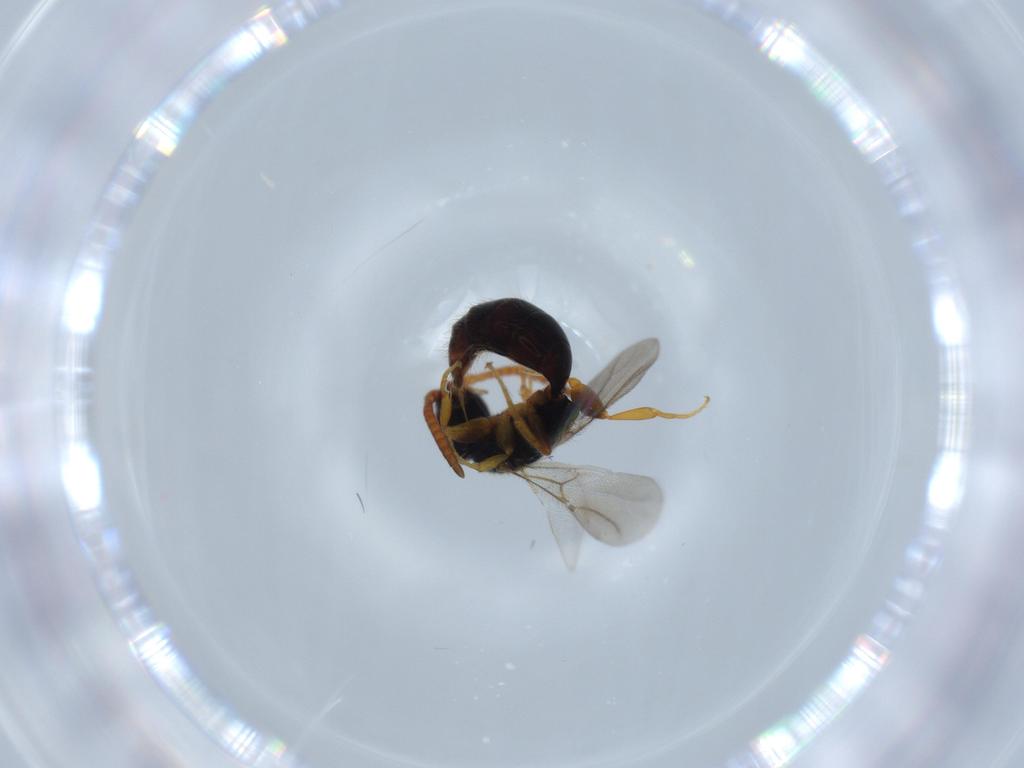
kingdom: Animalia
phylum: Arthropoda
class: Insecta
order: Hymenoptera
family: Bethylidae
